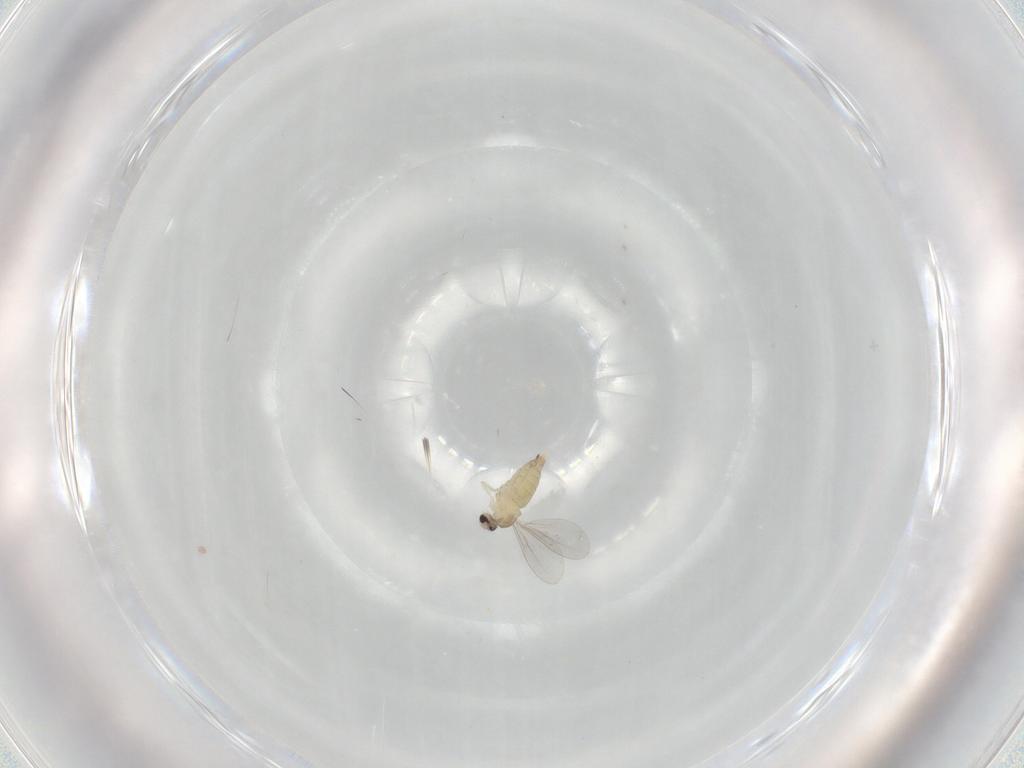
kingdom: Animalia
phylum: Arthropoda
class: Insecta
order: Diptera
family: Cecidomyiidae
